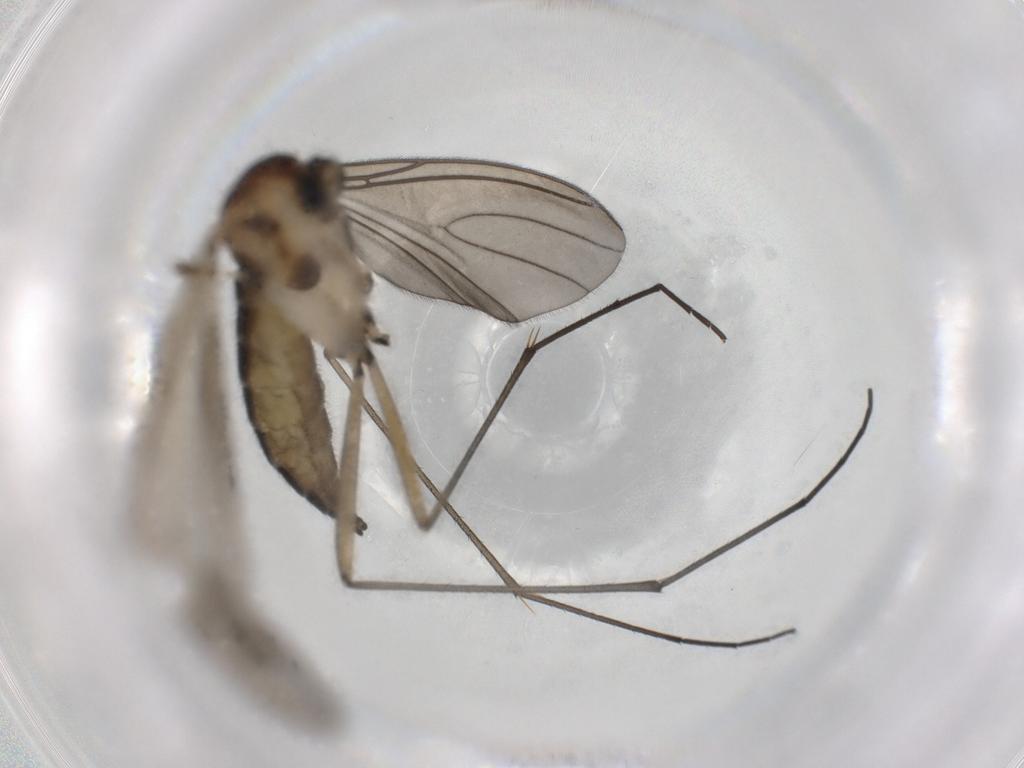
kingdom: Animalia
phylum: Arthropoda
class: Insecta
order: Diptera
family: Sciaridae
